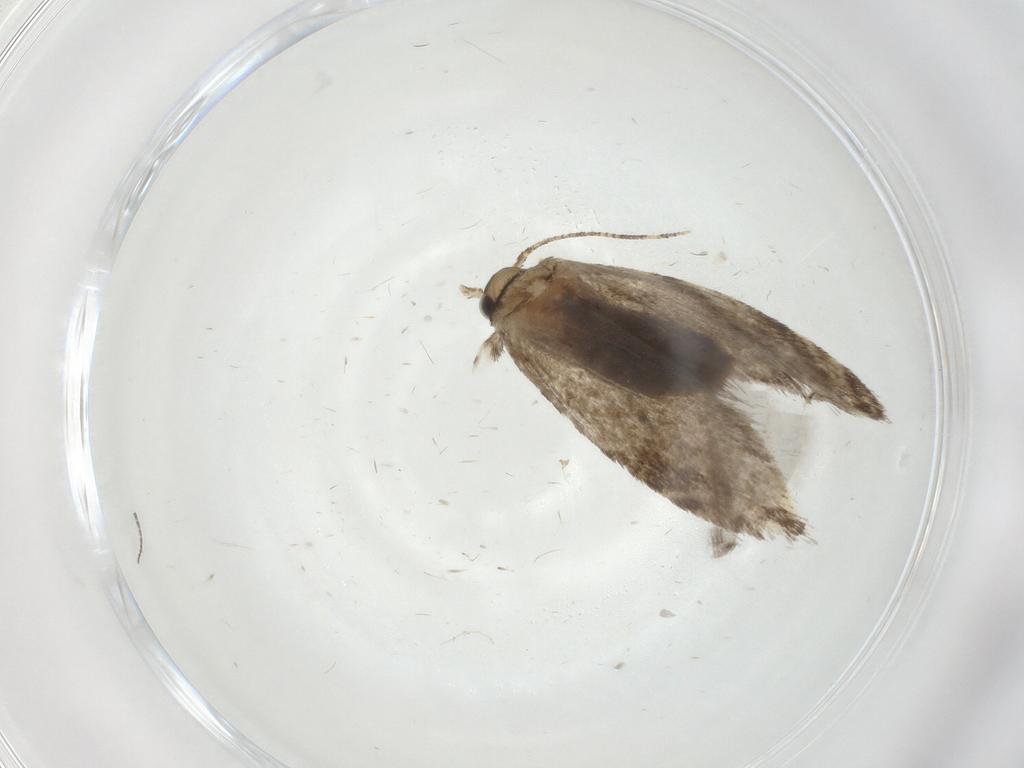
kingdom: Animalia
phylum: Arthropoda
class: Insecta
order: Lepidoptera
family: Tineidae
